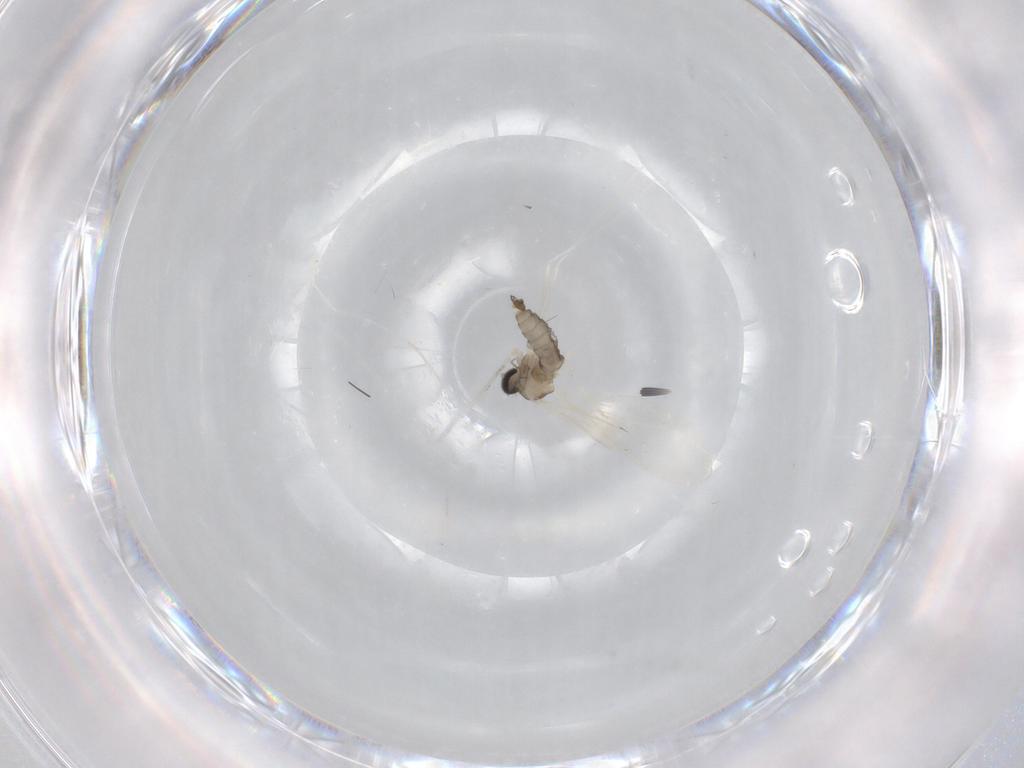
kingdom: Animalia
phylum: Arthropoda
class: Insecta
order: Diptera
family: Cecidomyiidae
